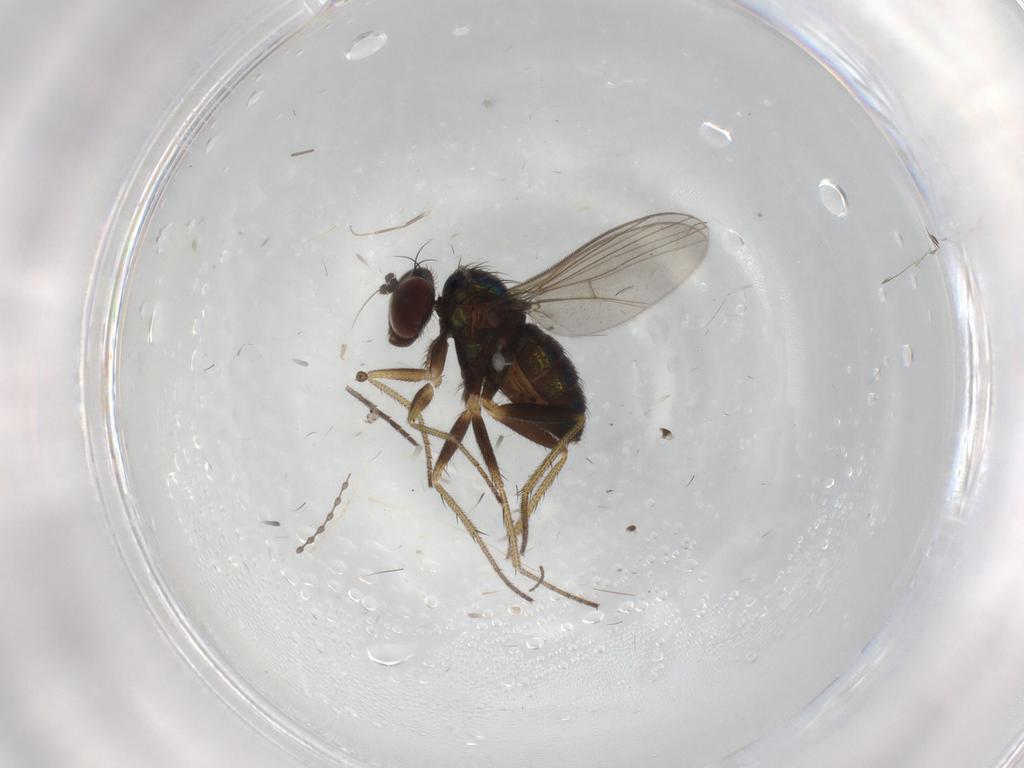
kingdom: Animalia
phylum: Arthropoda
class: Insecta
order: Diptera
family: Sciaridae
